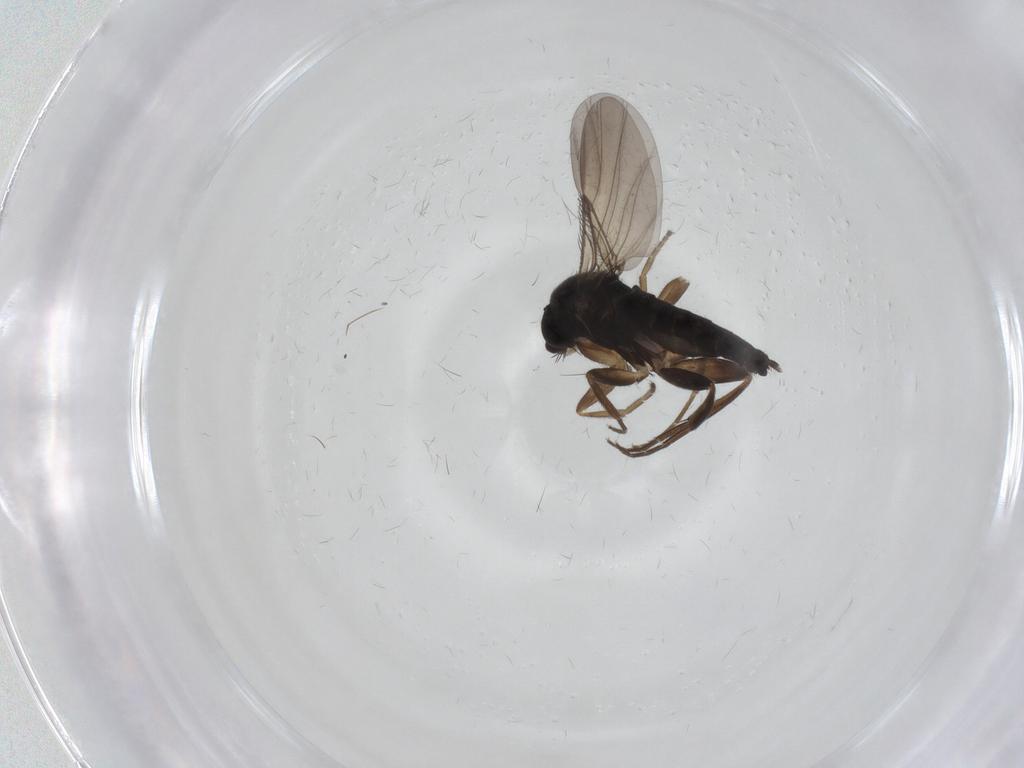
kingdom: Animalia
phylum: Arthropoda
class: Insecta
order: Diptera
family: Phoridae
